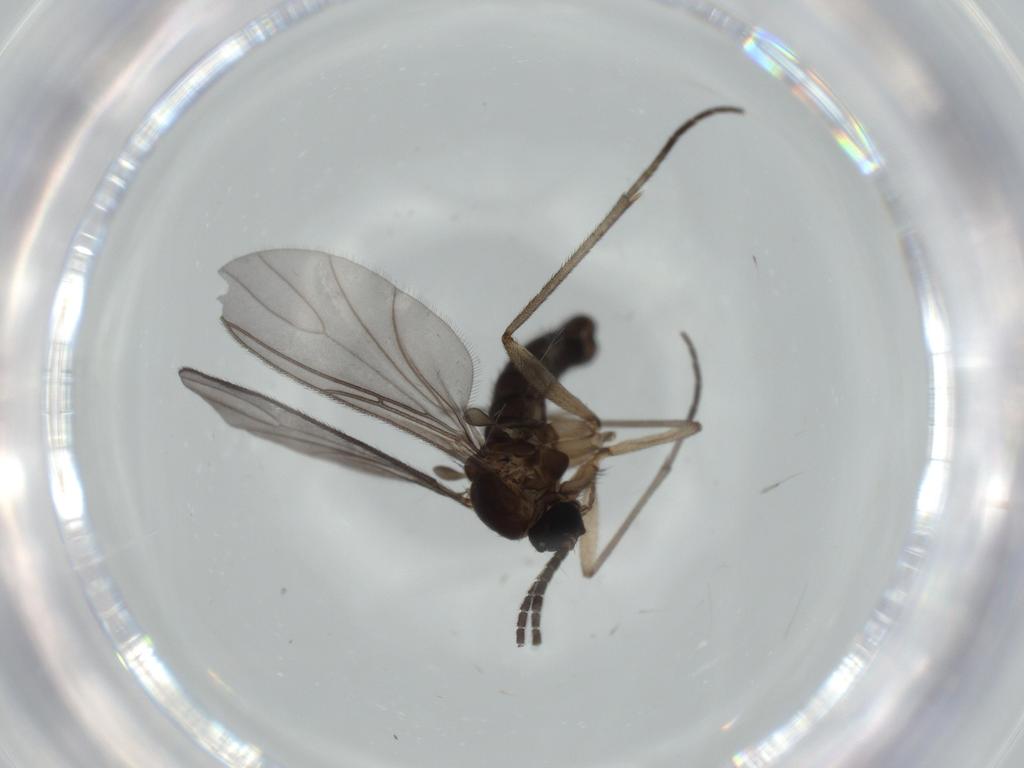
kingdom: Animalia
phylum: Arthropoda
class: Insecta
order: Diptera
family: Sciaridae
